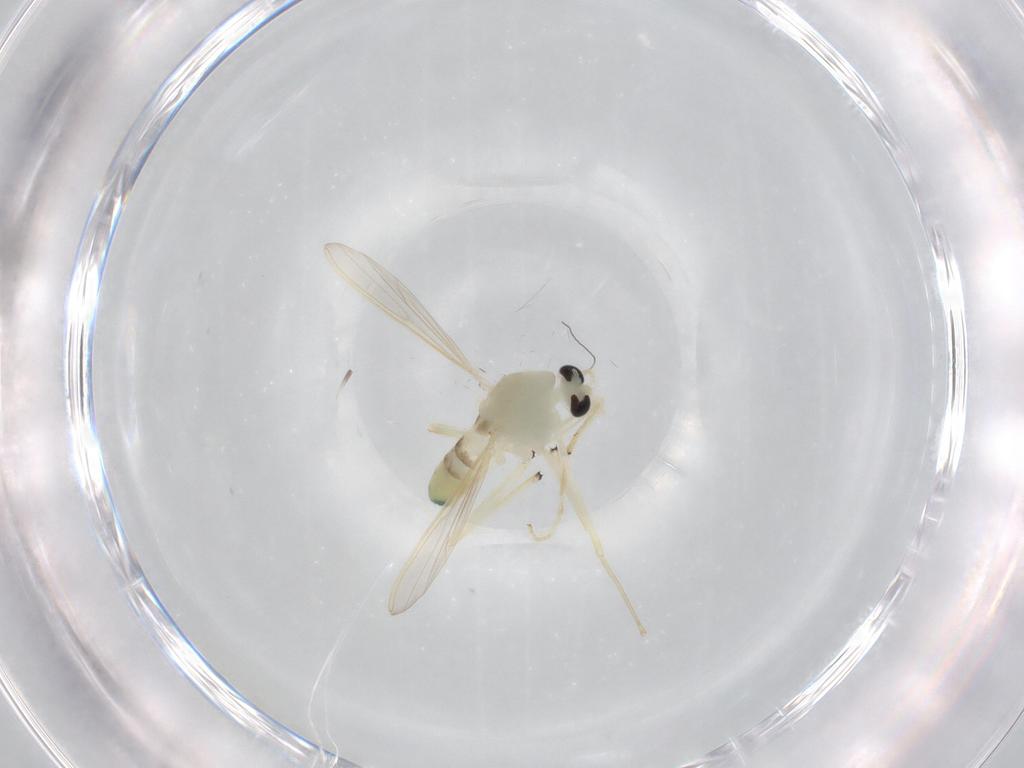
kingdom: Animalia
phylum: Arthropoda
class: Insecta
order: Diptera
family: Chironomidae
